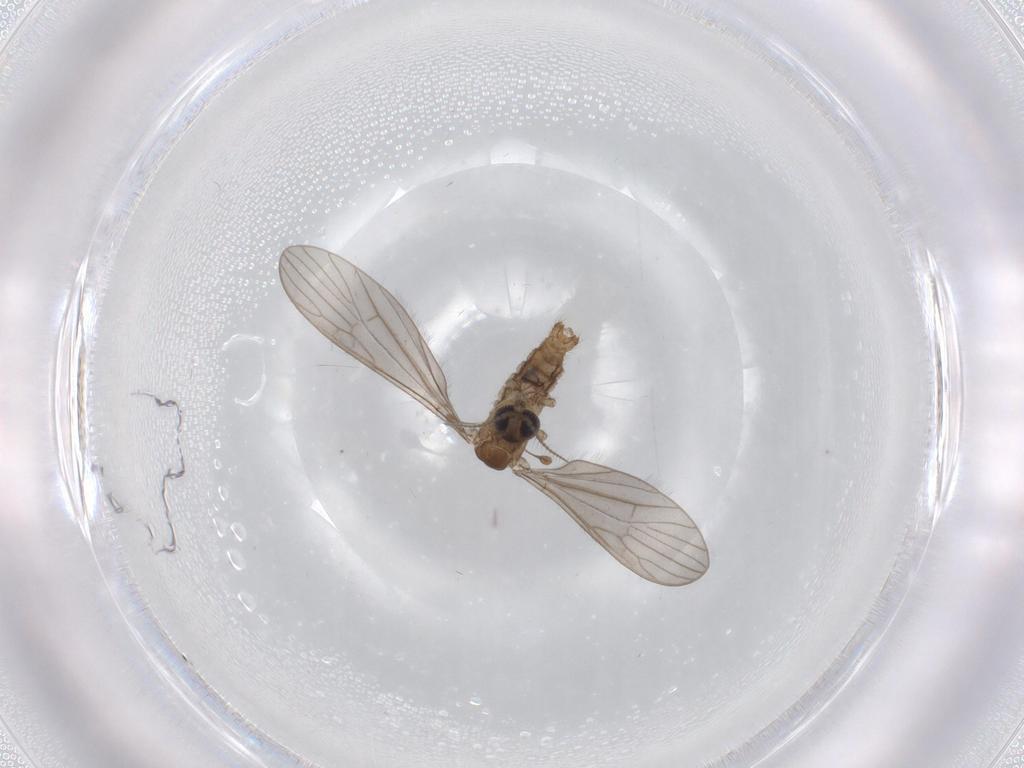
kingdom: Animalia
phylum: Arthropoda
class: Insecta
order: Diptera
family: Limoniidae
